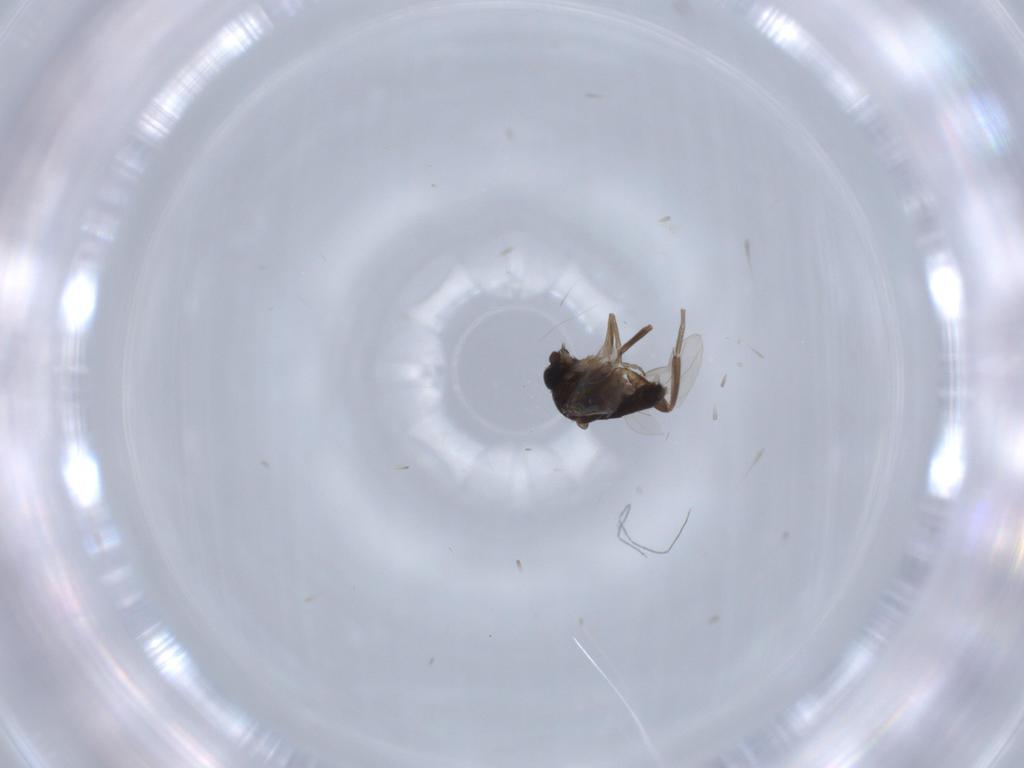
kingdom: Animalia
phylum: Arthropoda
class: Insecta
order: Diptera
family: Phoridae
